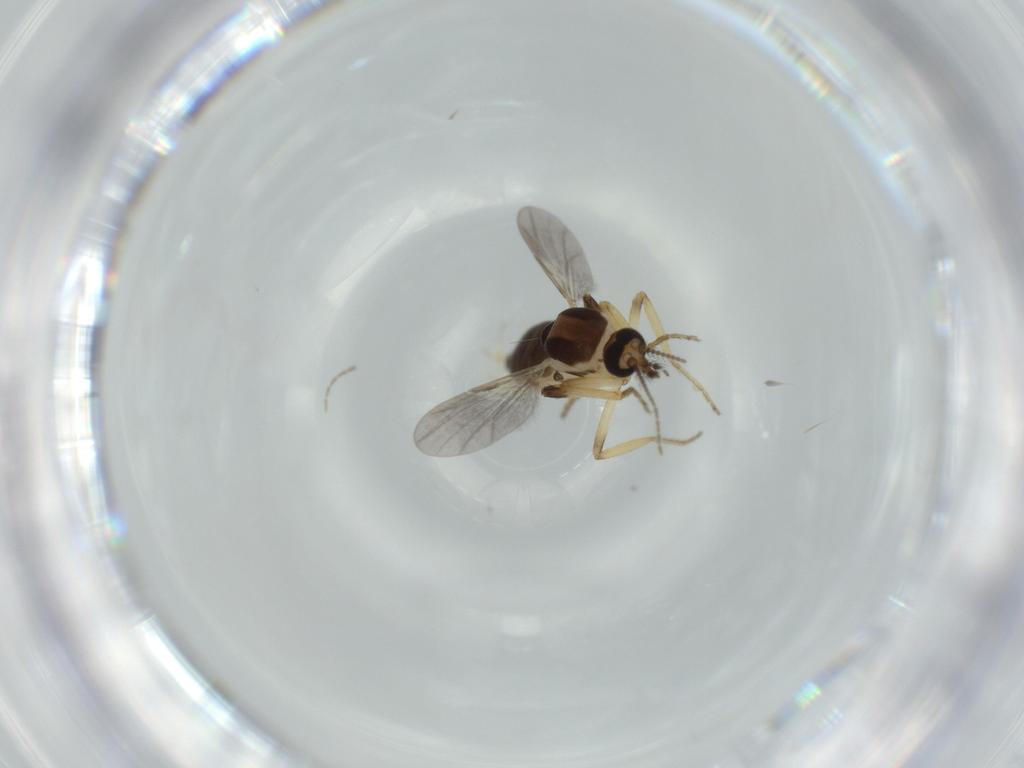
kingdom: Animalia
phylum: Arthropoda
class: Insecta
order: Diptera
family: Ceratopogonidae
